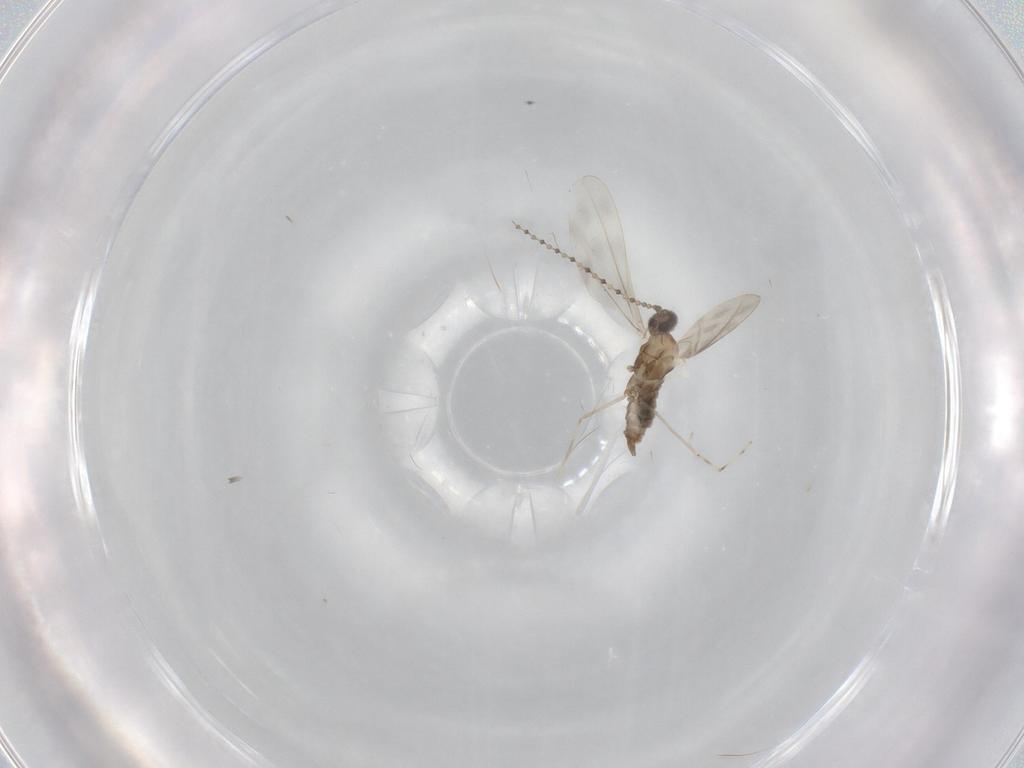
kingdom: Animalia
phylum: Arthropoda
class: Insecta
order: Diptera
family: Cecidomyiidae
